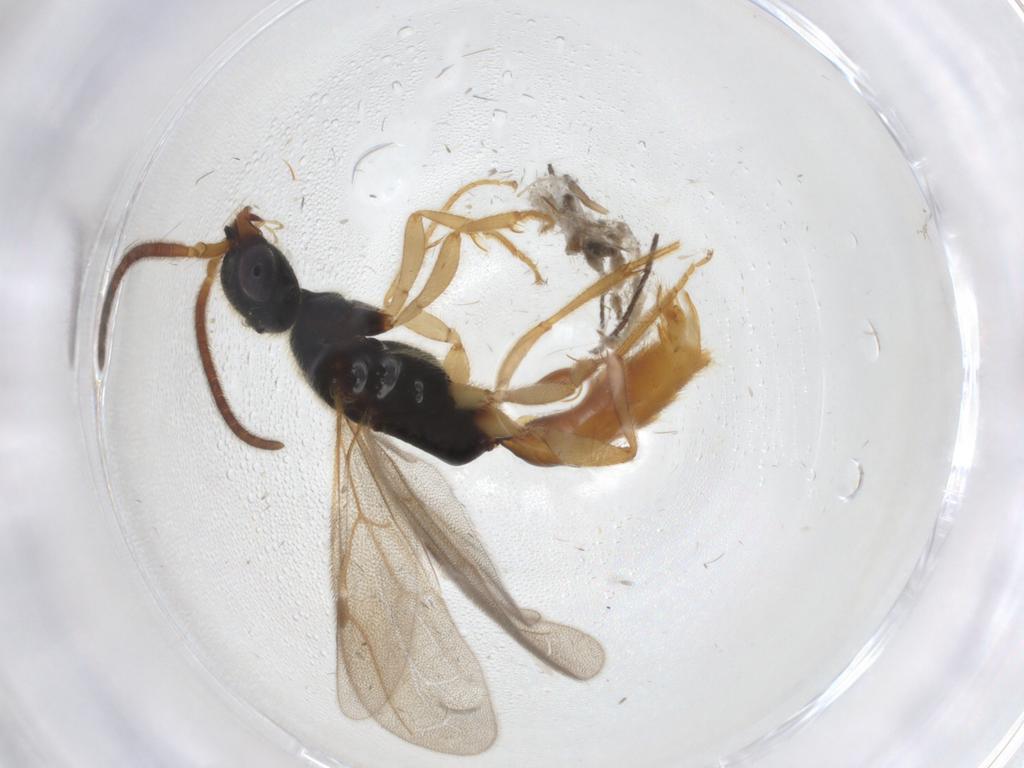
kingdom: Animalia
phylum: Arthropoda
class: Insecta
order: Hymenoptera
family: Bethylidae
